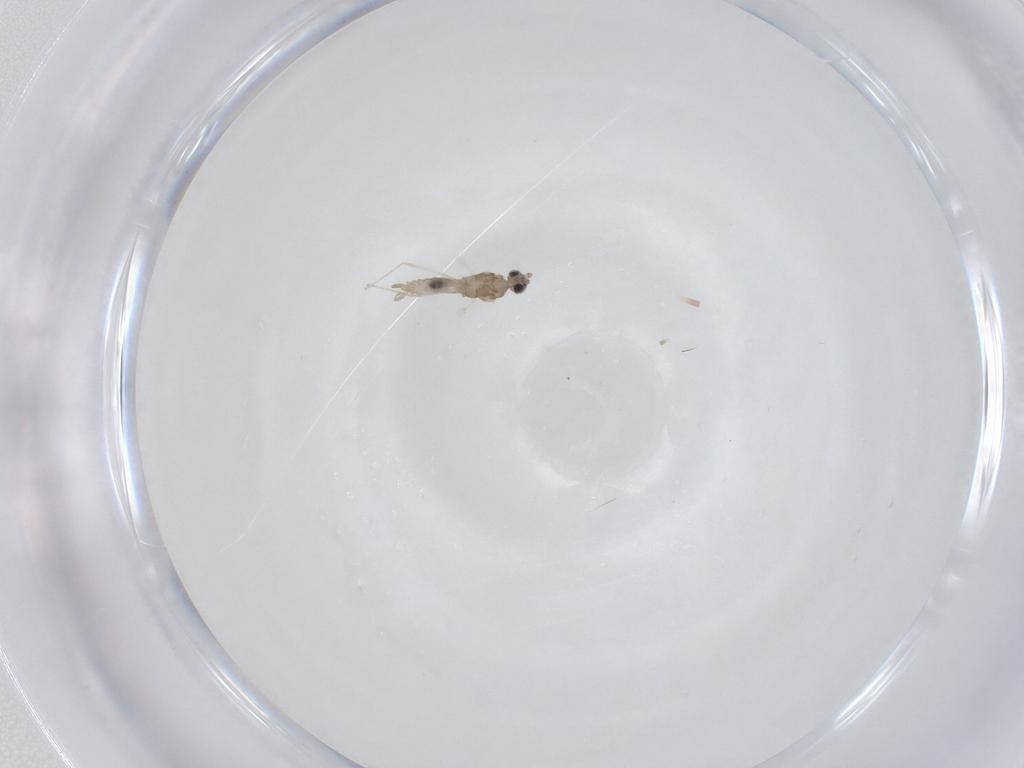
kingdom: Animalia
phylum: Arthropoda
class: Insecta
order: Diptera
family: Cecidomyiidae
